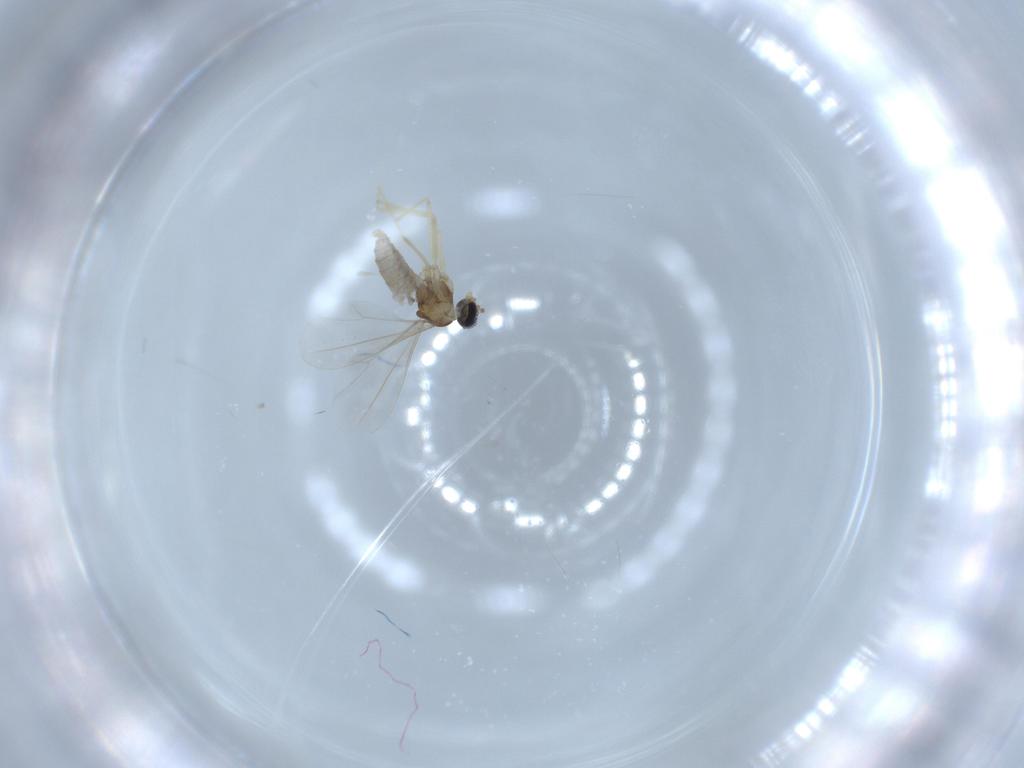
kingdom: Animalia
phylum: Arthropoda
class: Insecta
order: Diptera
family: Cecidomyiidae
